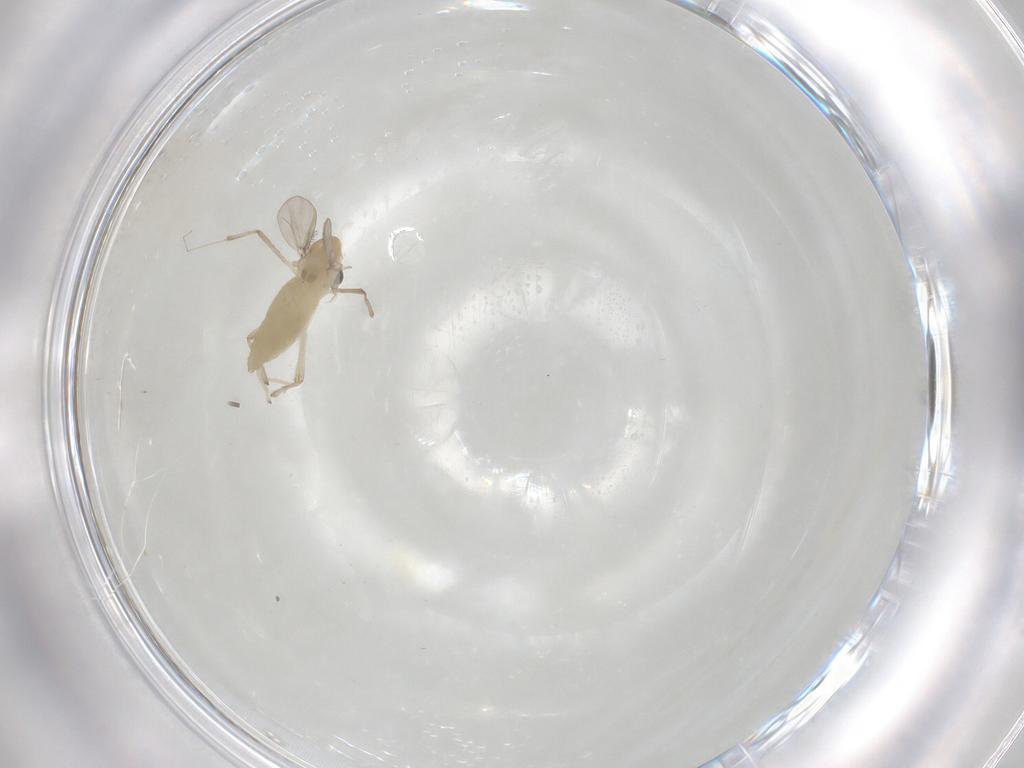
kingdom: Animalia
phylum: Arthropoda
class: Insecta
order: Diptera
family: Chironomidae
